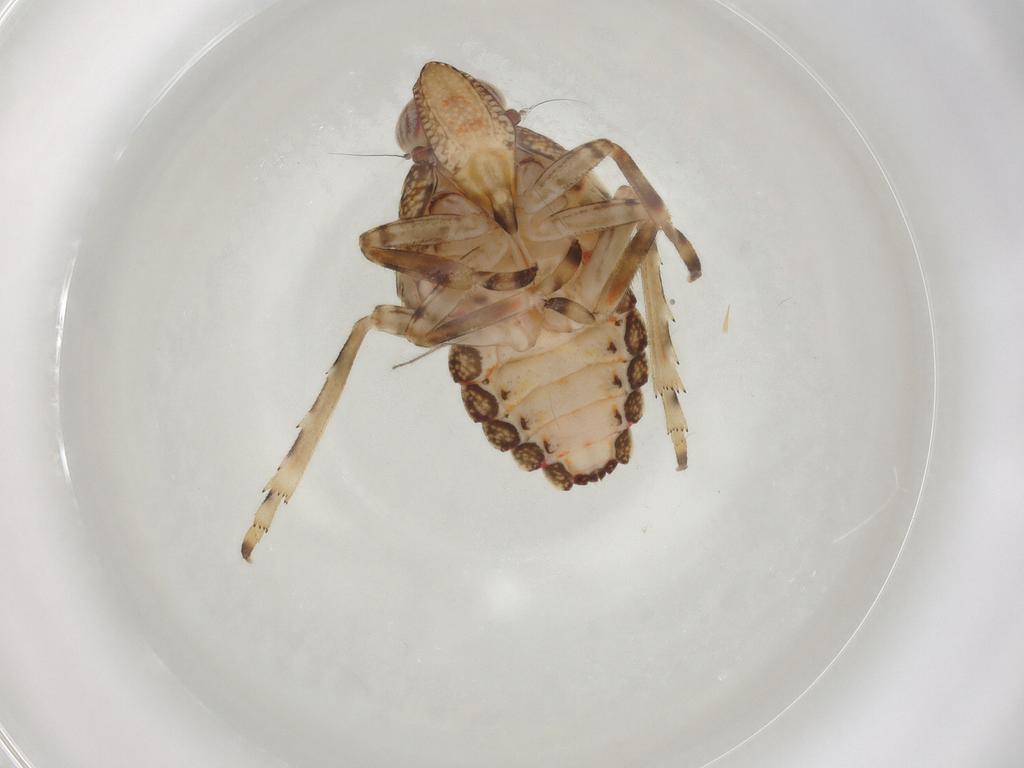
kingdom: Animalia
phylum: Arthropoda
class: Insecta
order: Hemiptera
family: Tropiduchidae
